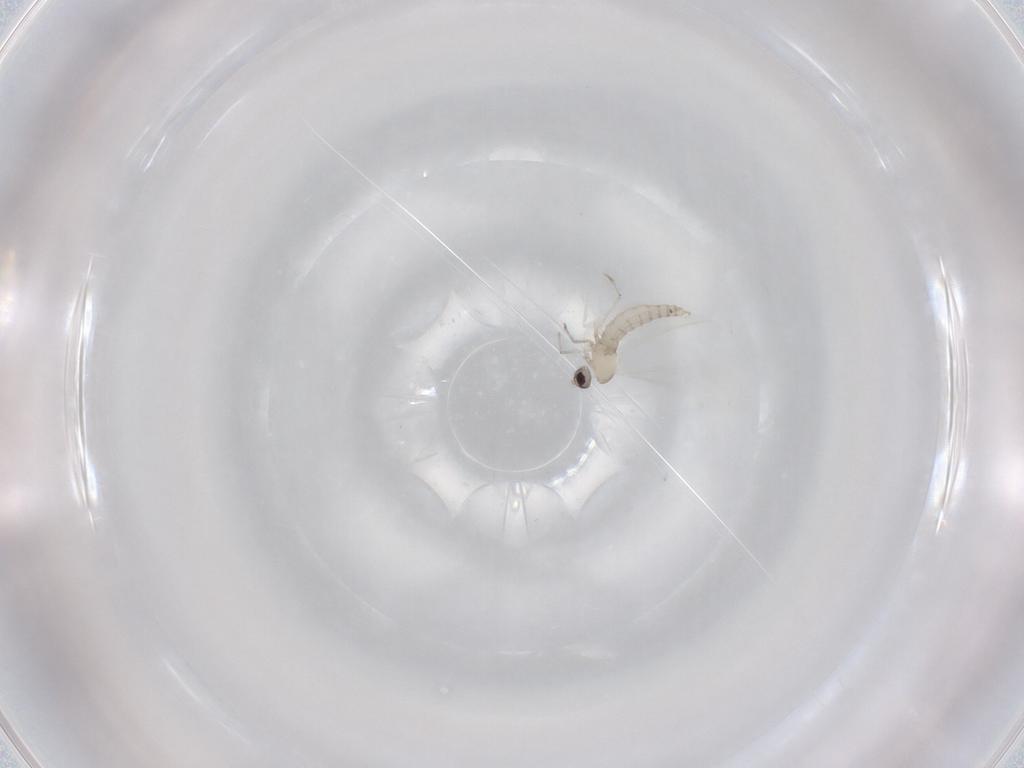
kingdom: Animalia
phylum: Arthropoda
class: Insecta
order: Diptera
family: Cecidomyiidae
